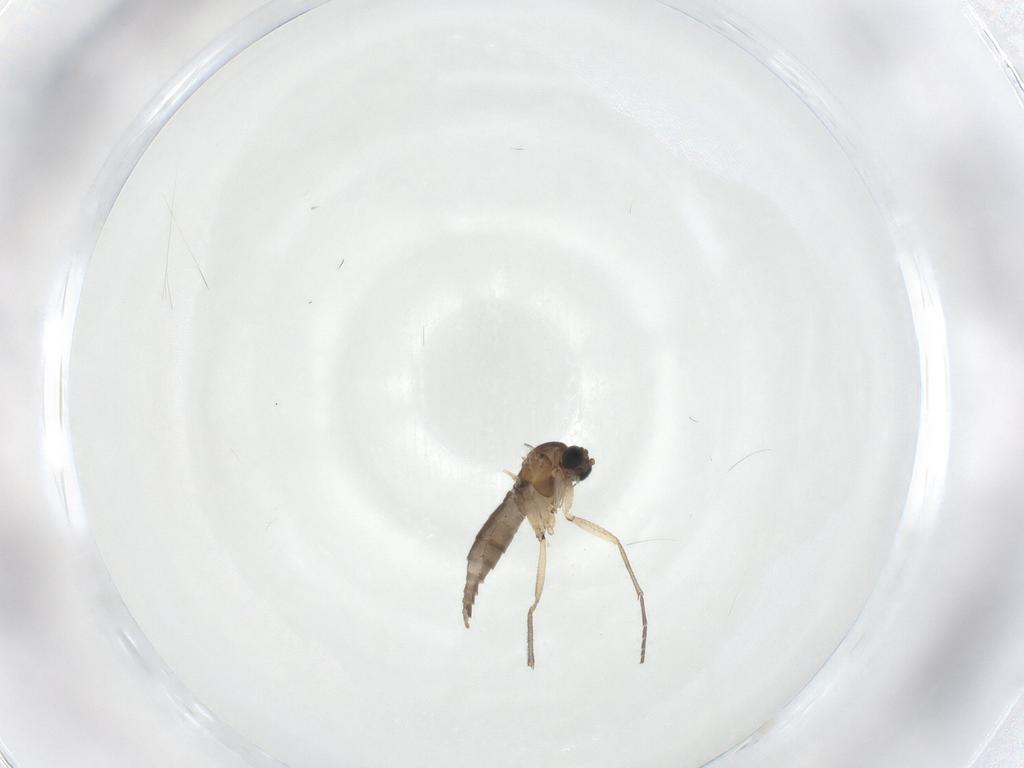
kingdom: Animalia
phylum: Arthropoda
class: Insecta
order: Diptera
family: Sciaridae
